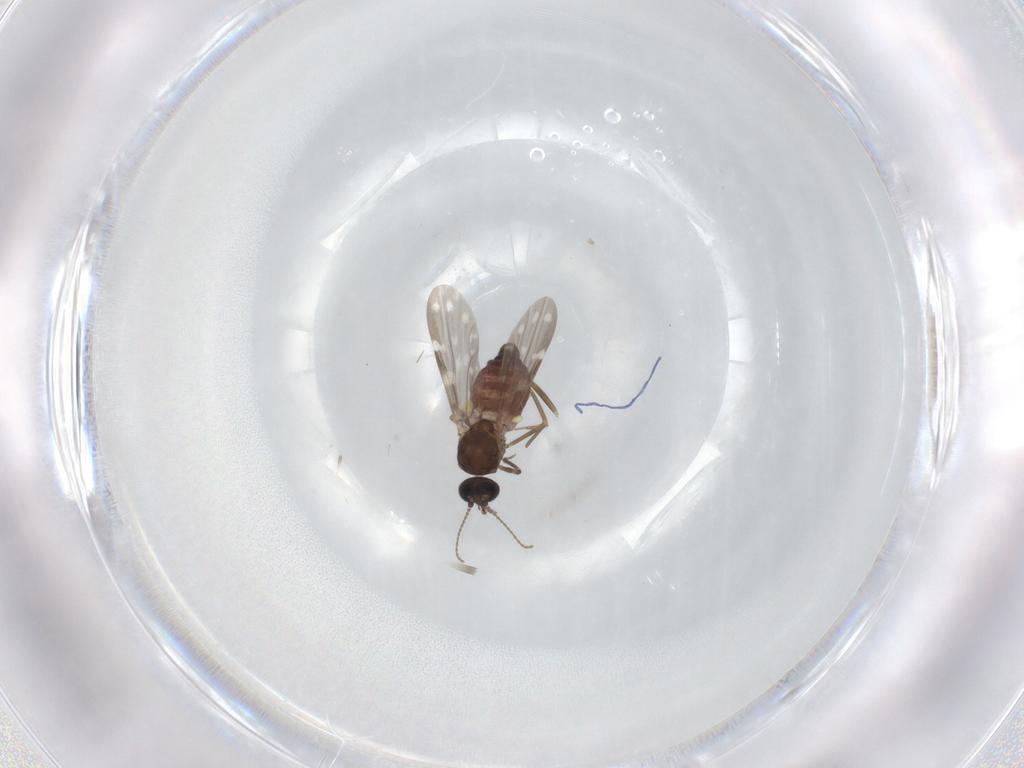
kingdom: Animalia
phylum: Arthropoda
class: Insecta
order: Diptera
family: Ceratopogonidae
